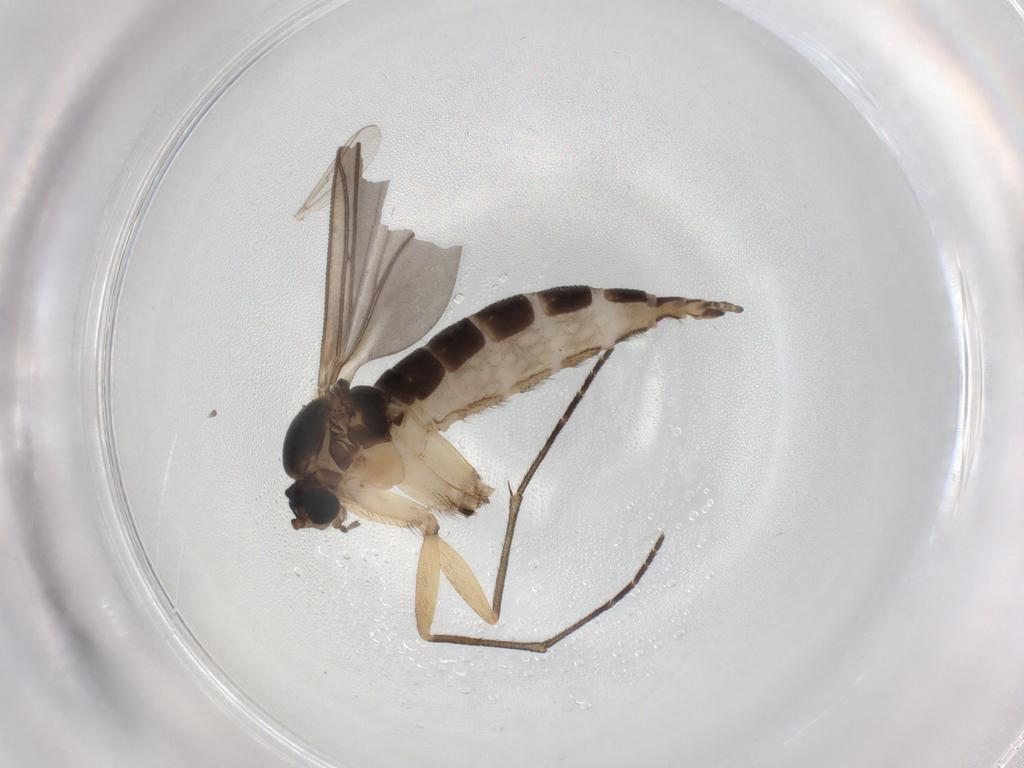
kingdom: Animalia
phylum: Arthropoda
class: Insecta
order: Diptera
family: Sciaridae
